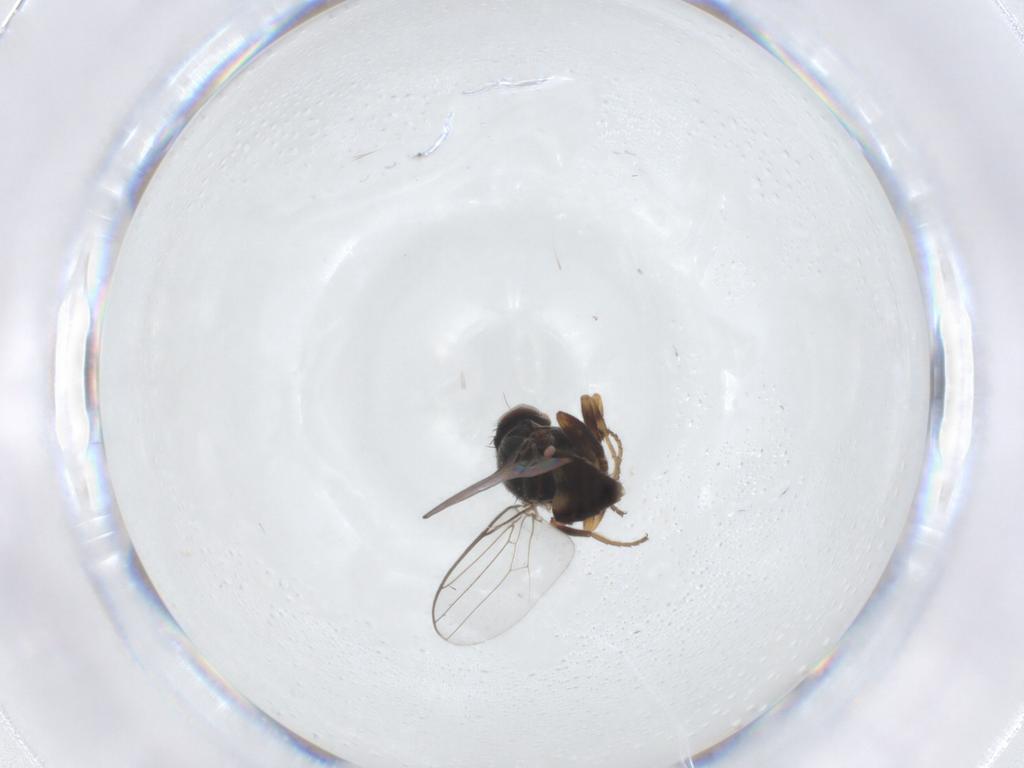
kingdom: Animalia
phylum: Arthropoda
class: Insecta
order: Diptera
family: Chloropidae
